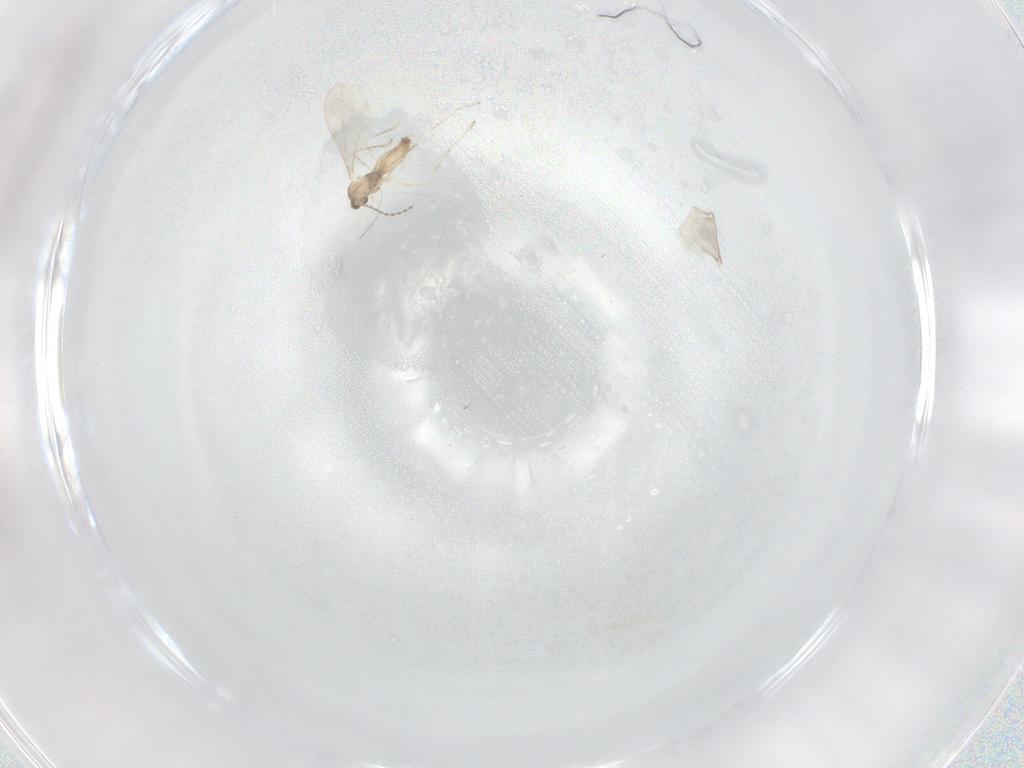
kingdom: Animalia
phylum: Arthropoda
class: Insecta
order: Diptera
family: Cecidomyiidae
